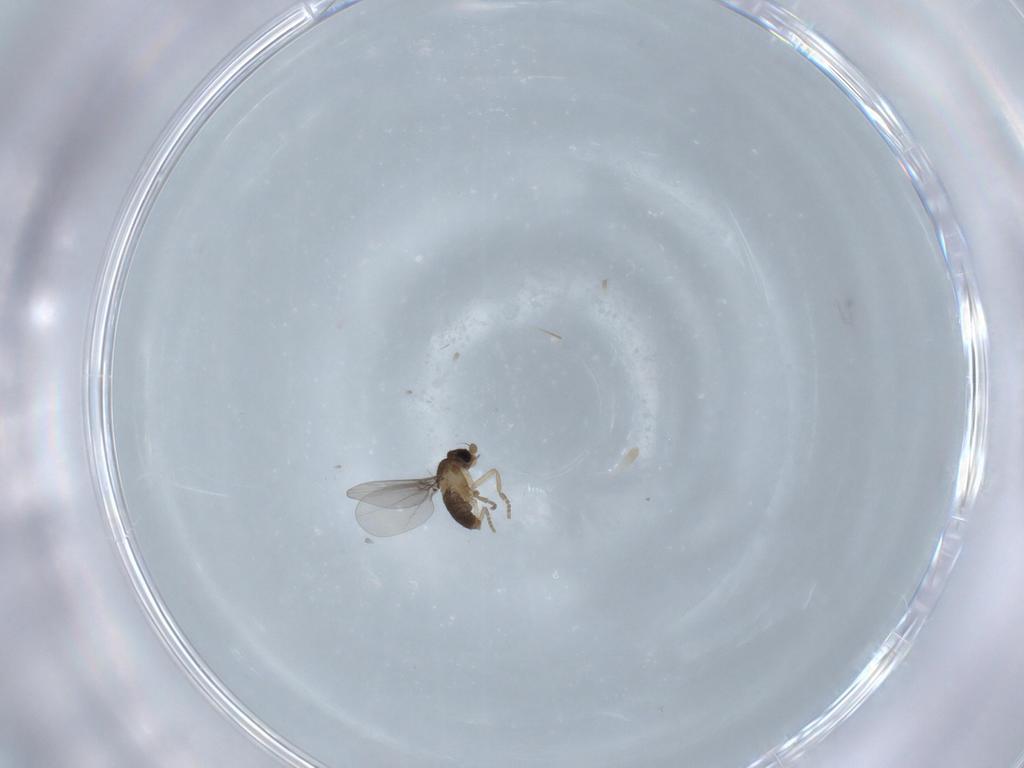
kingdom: Animalia
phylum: Arthropoda
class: Insecta
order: Diptera
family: Phoridae
